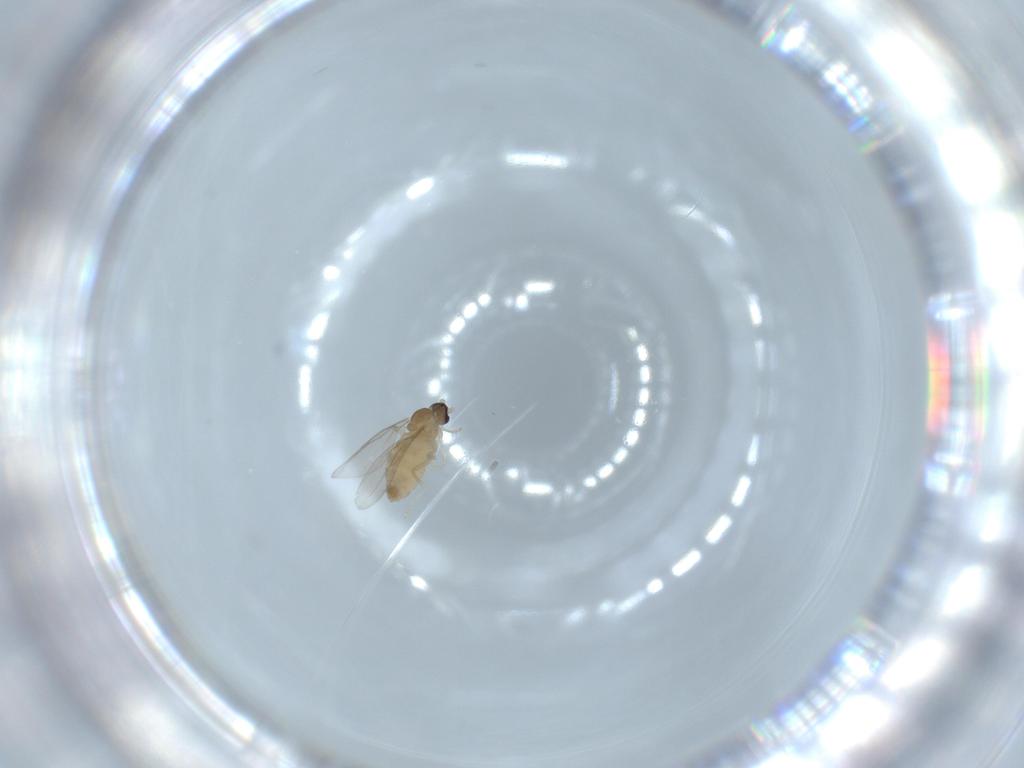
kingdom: Animalia
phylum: Arthropoda
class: Insecta
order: Diptera
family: Cecidomyiidae
